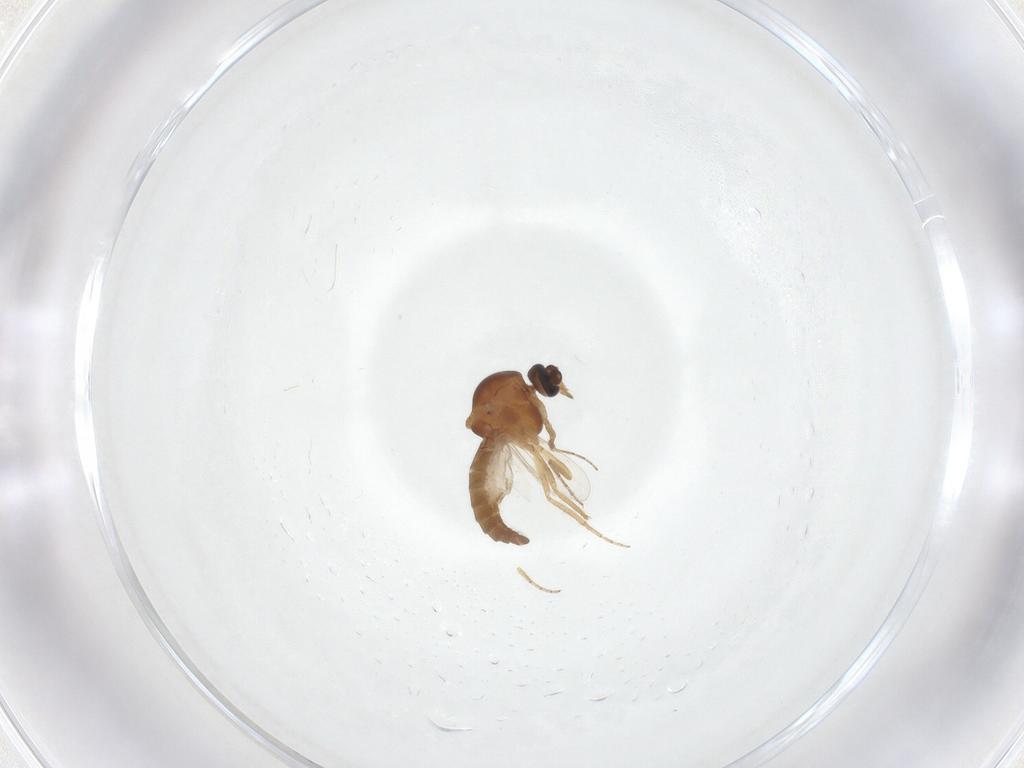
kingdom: Animalia
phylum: Arthropoda
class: Insecta
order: Diptera
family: Ceratopogonidae
